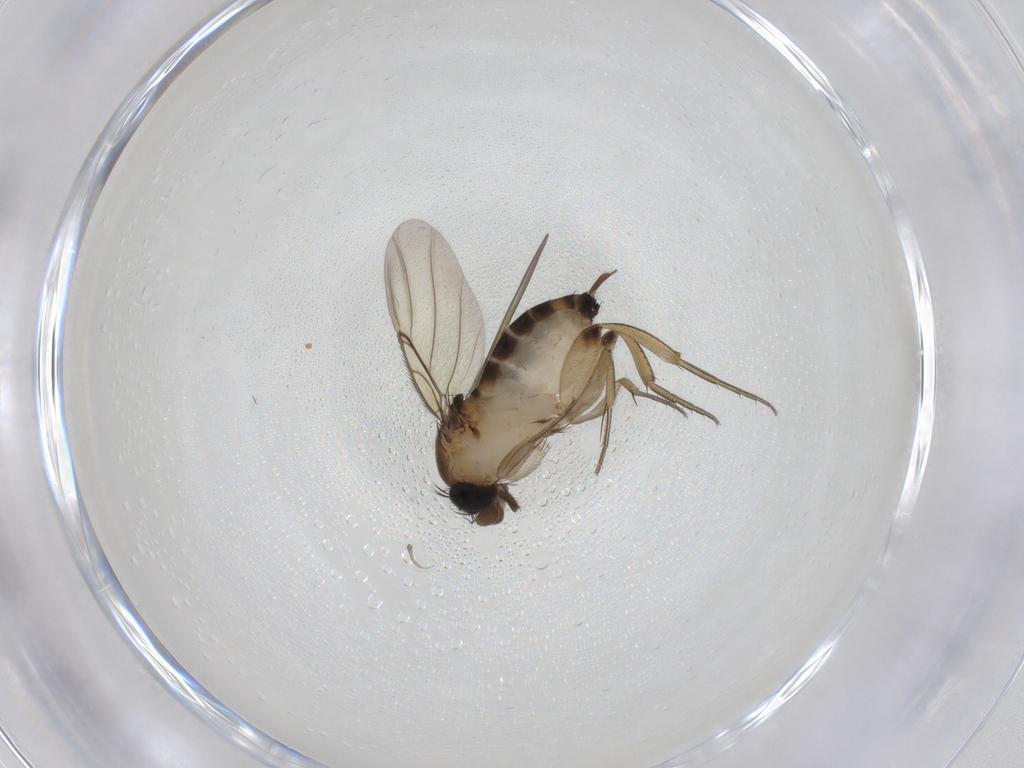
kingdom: Animalia
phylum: Arthropoda
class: Insecta
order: Diptera
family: Phoridae
